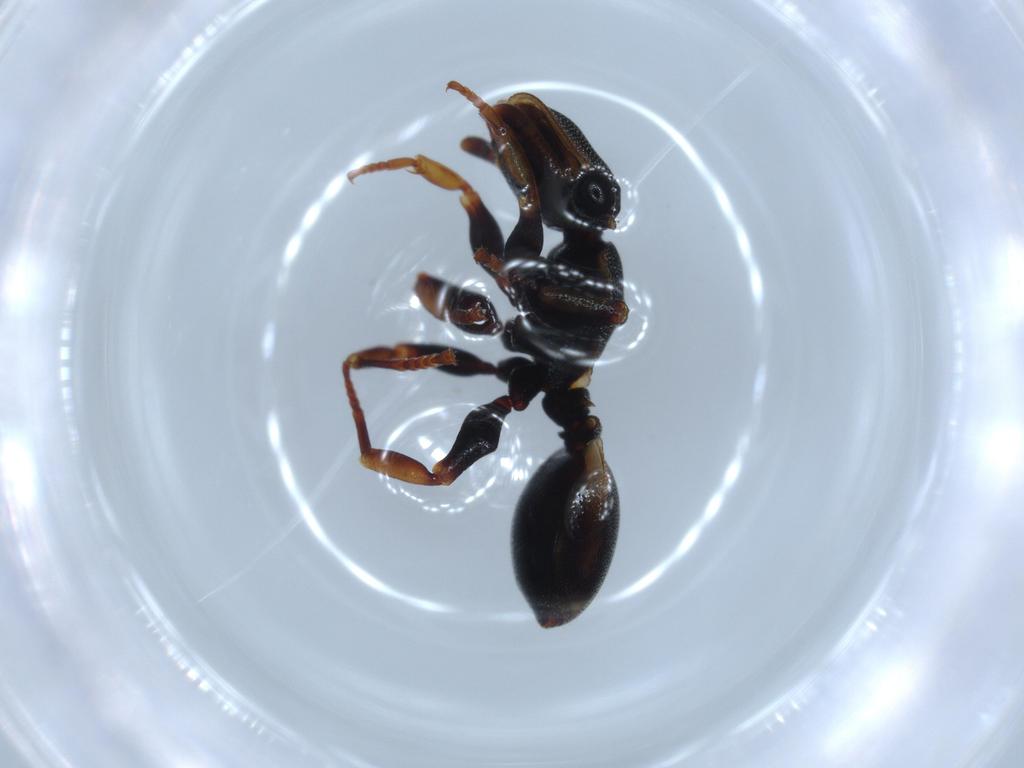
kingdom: Animalia
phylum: Arthropoda
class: Insecta
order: Hymenoptera
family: Formicidae
